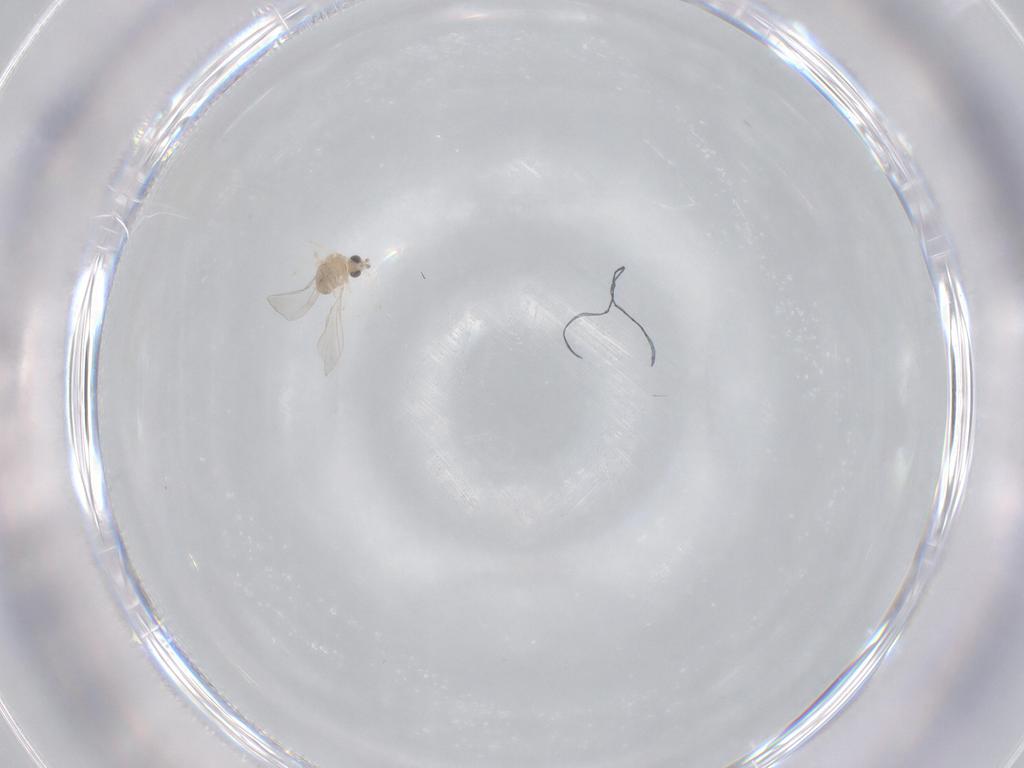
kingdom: Animalia
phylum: Arthropoda
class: Insecta
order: Diptera
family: Cecidomyiidae
